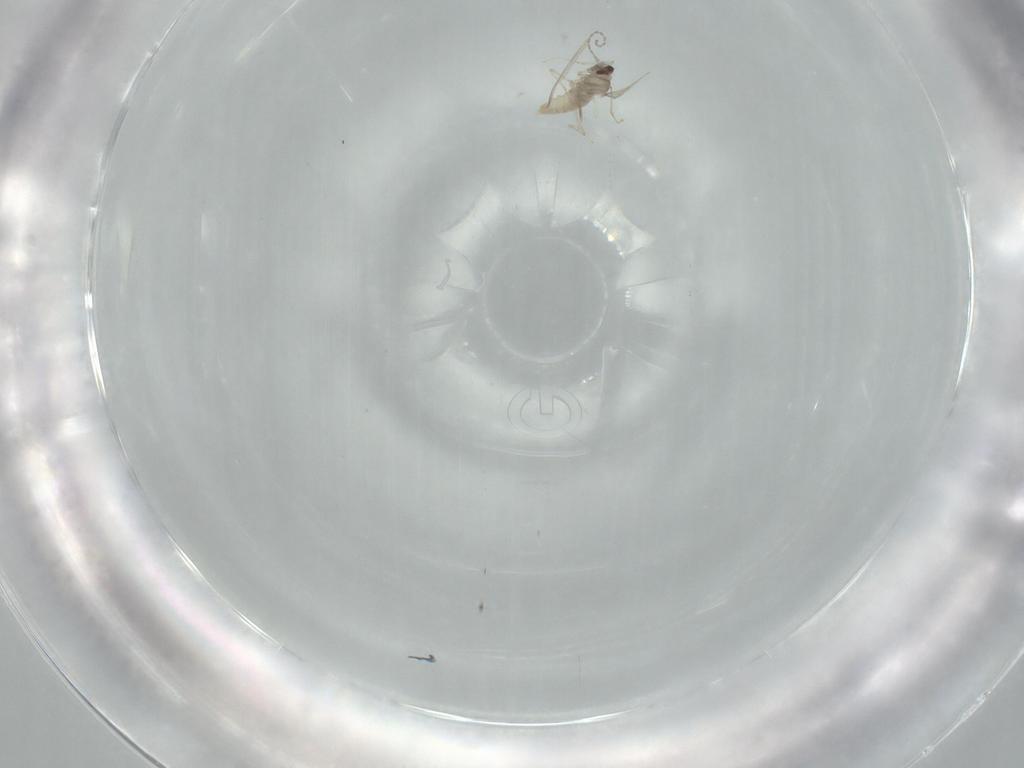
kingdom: Animalia
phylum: Arthropoda
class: Insecta
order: Diptera
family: Cecidomyiidae
